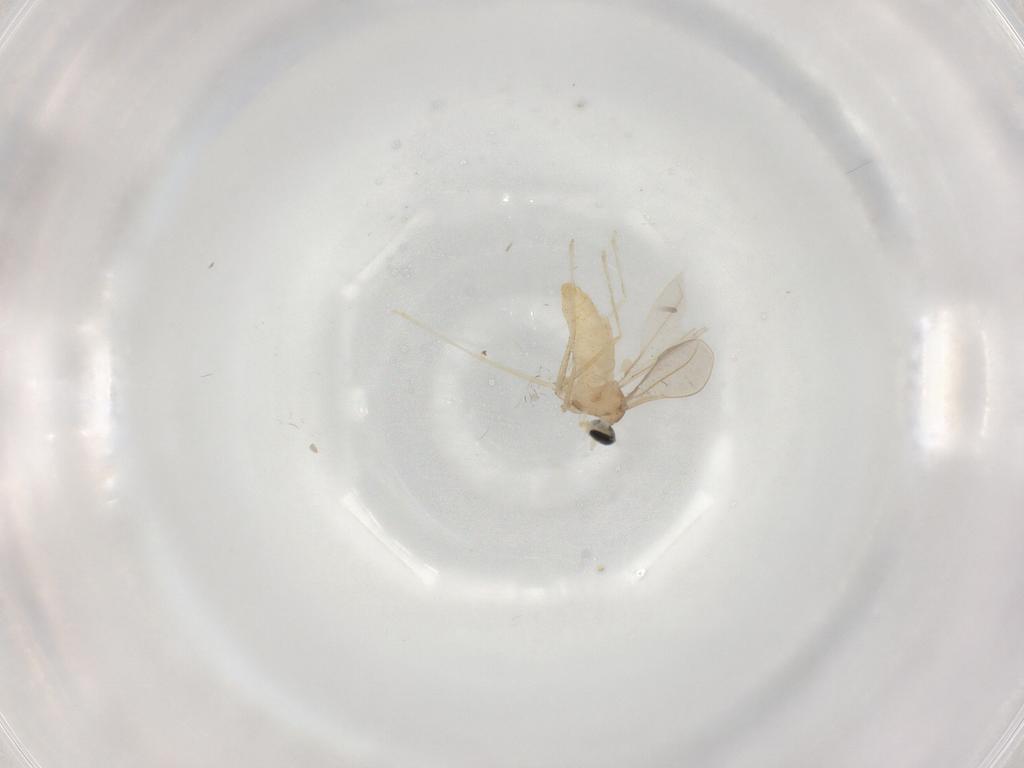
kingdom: Animalia
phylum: Arthropoda
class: Insecta
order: Diptera
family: Cecidomyiidae
